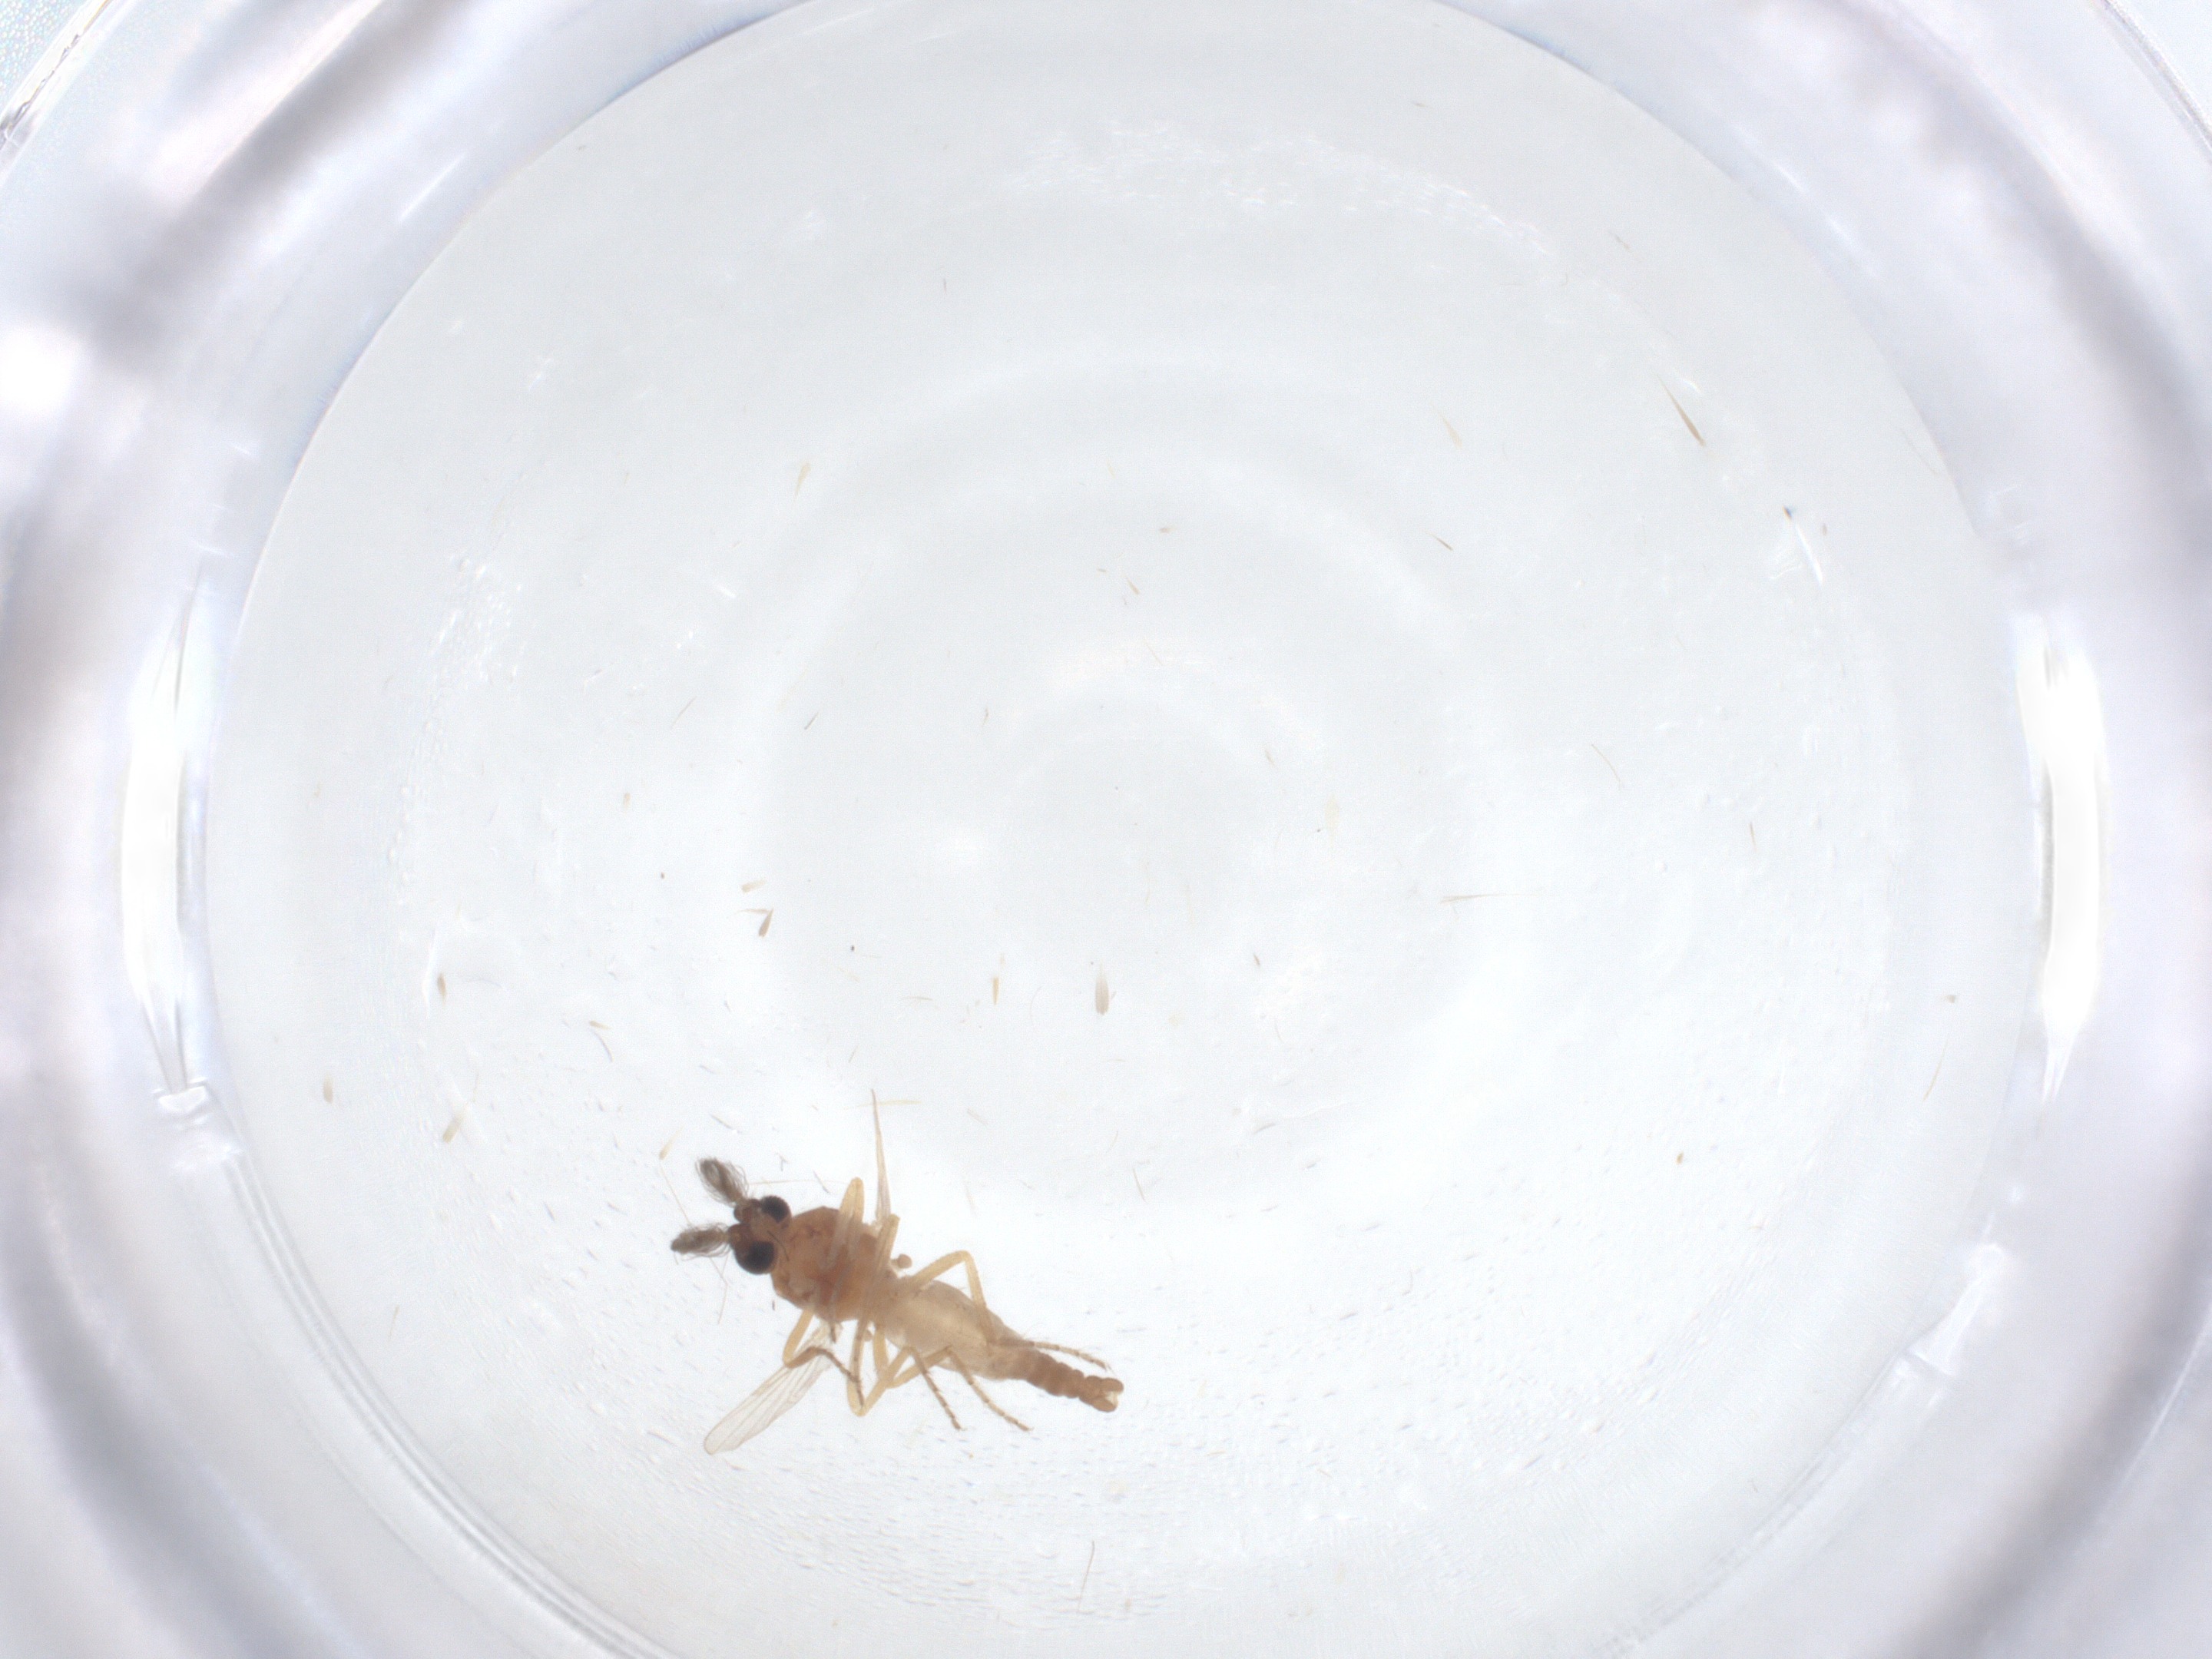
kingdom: Animalia
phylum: Arthropoda
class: Insecta
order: Diptera
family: Ceratopogonidae
